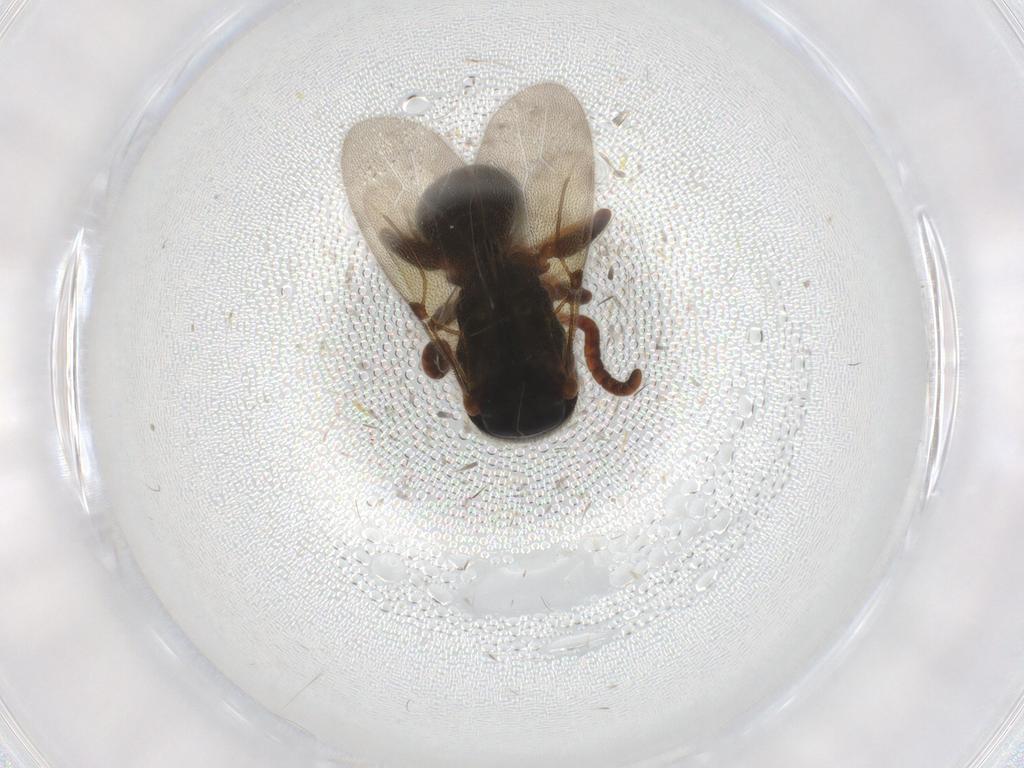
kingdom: Animalia
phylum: Arthropoda
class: Insecta
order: Hymenoptera
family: Bethylidae
